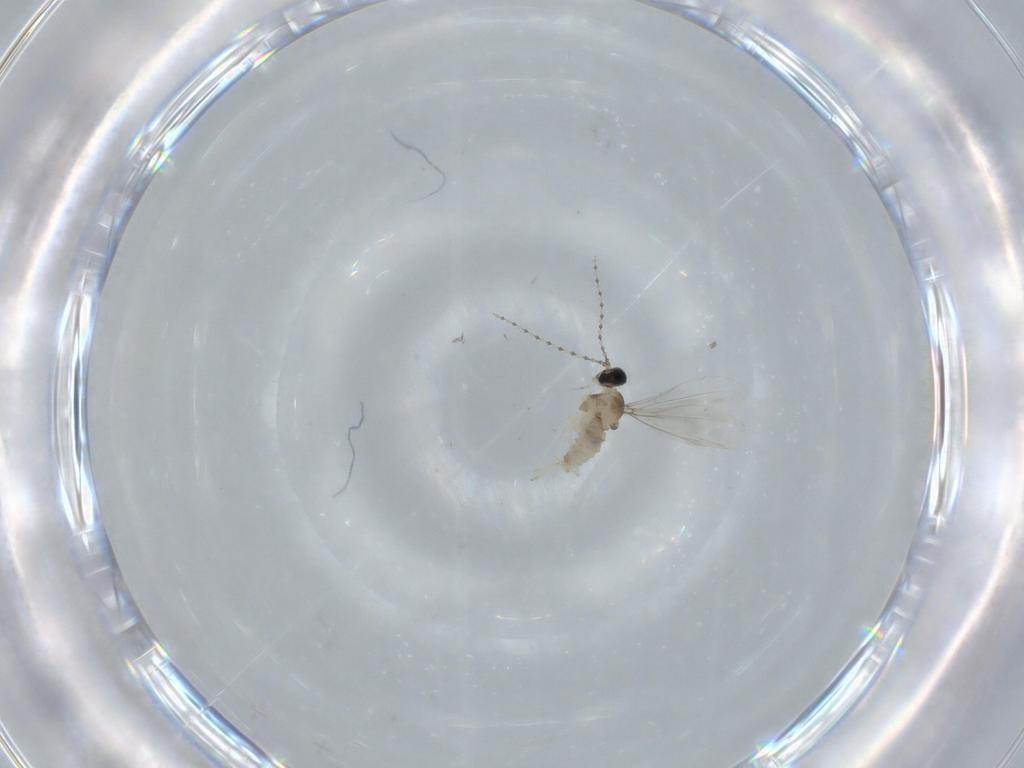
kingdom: Animalia
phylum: Arthropoda
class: Insecta
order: Diptera
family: Cecidomyiidae
